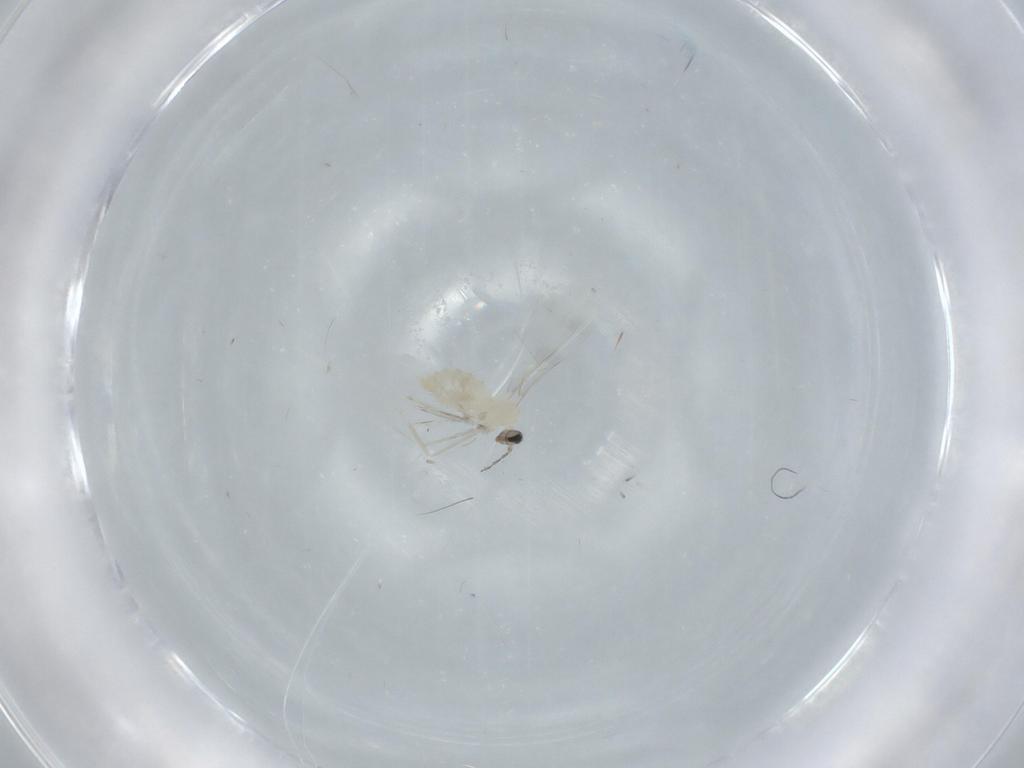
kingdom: Animalia
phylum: Arthropoda
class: Insecta
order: Diptera
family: Cecidomyiidae
